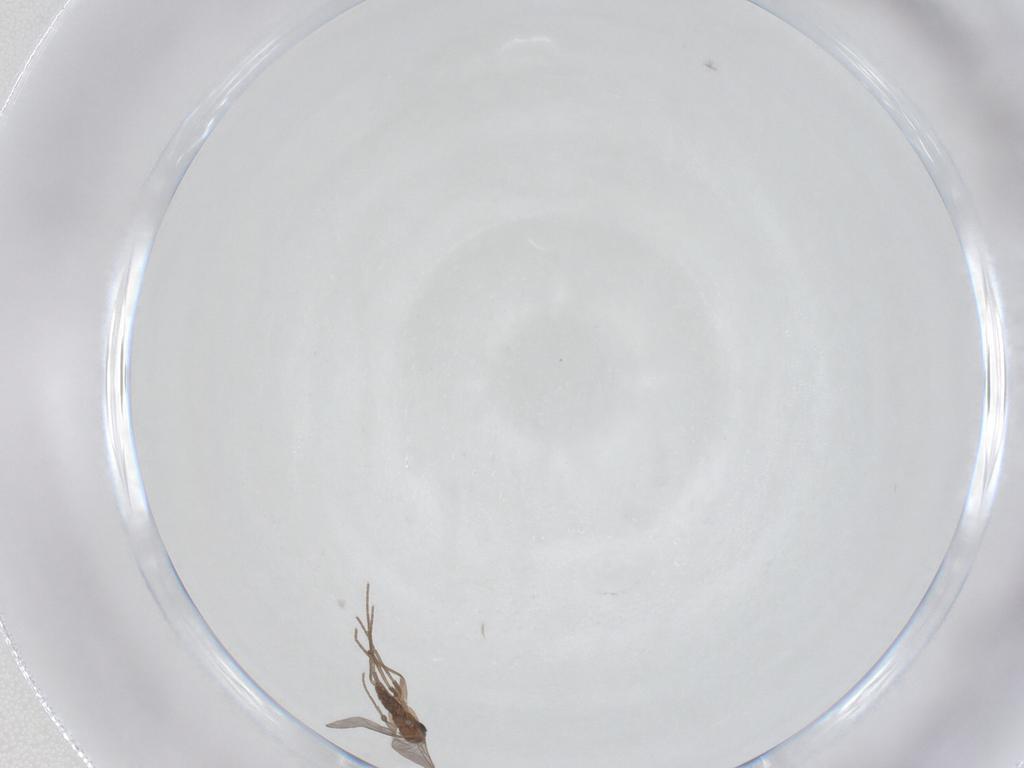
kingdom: Animalia
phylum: Arthropoda
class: Insecta
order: Diptera
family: Sciaridae
